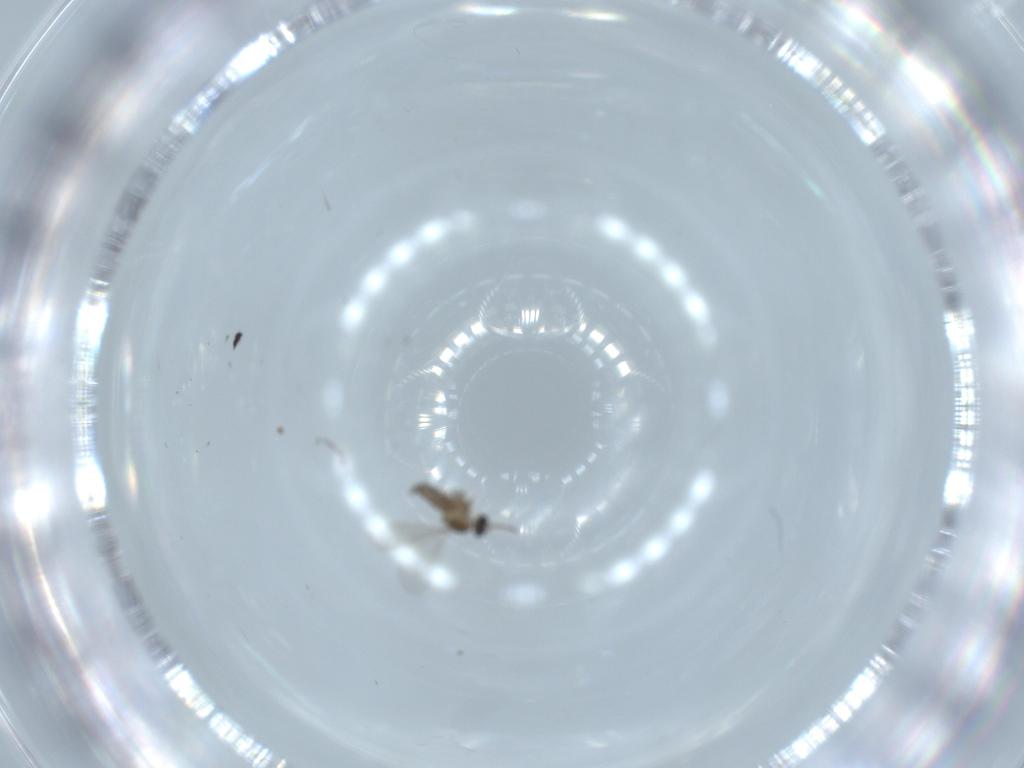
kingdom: Animalia
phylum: Arthropoda
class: Insecta
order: Diptera
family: Cecidomyiidae
